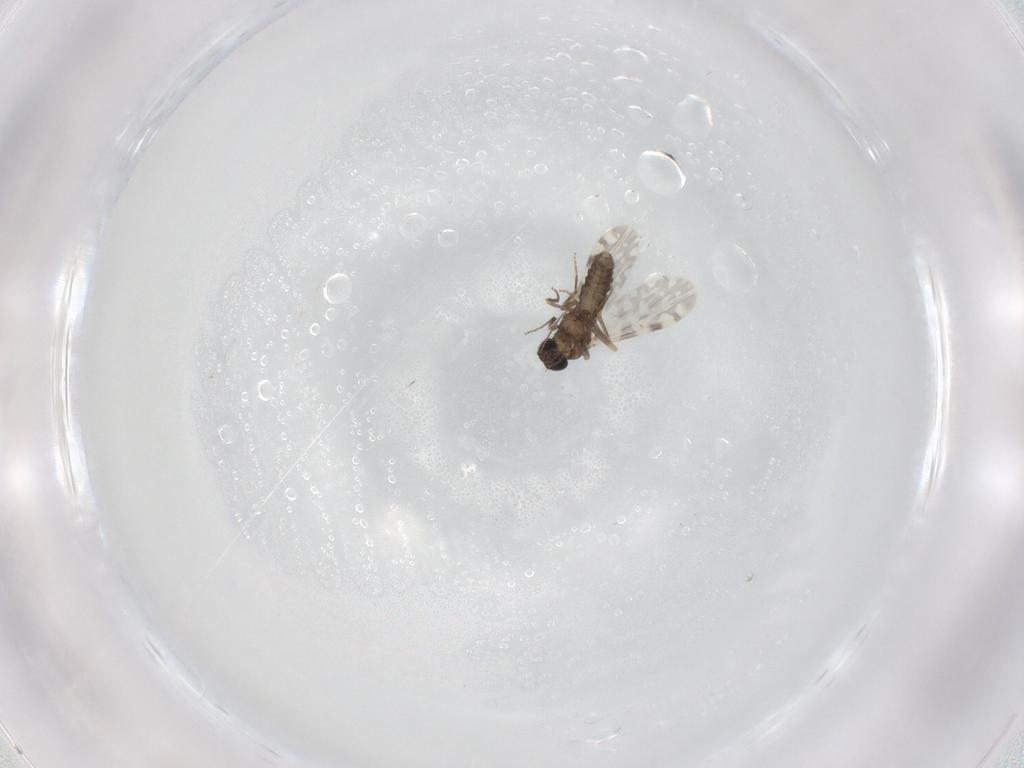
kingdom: Animalia
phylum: Arthropoda
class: Insecta
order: Diptera
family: Ceratopogonidae
